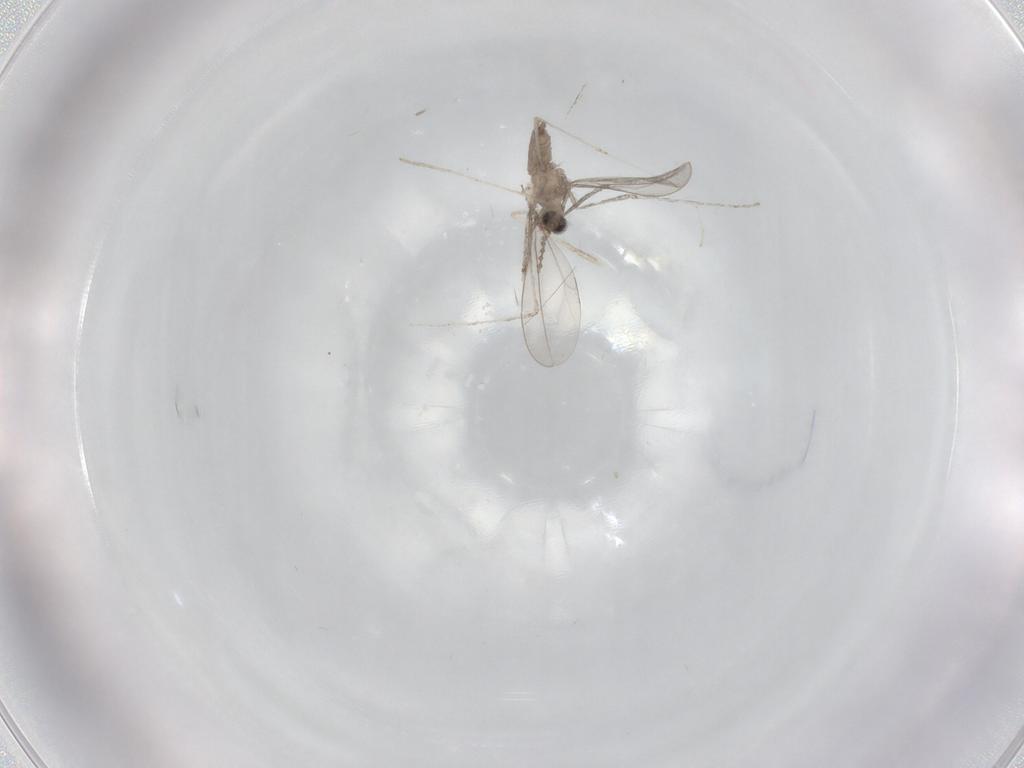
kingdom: Animalia
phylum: Arthropoda
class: Insecta
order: Diptera
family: Cecidomyiidae
